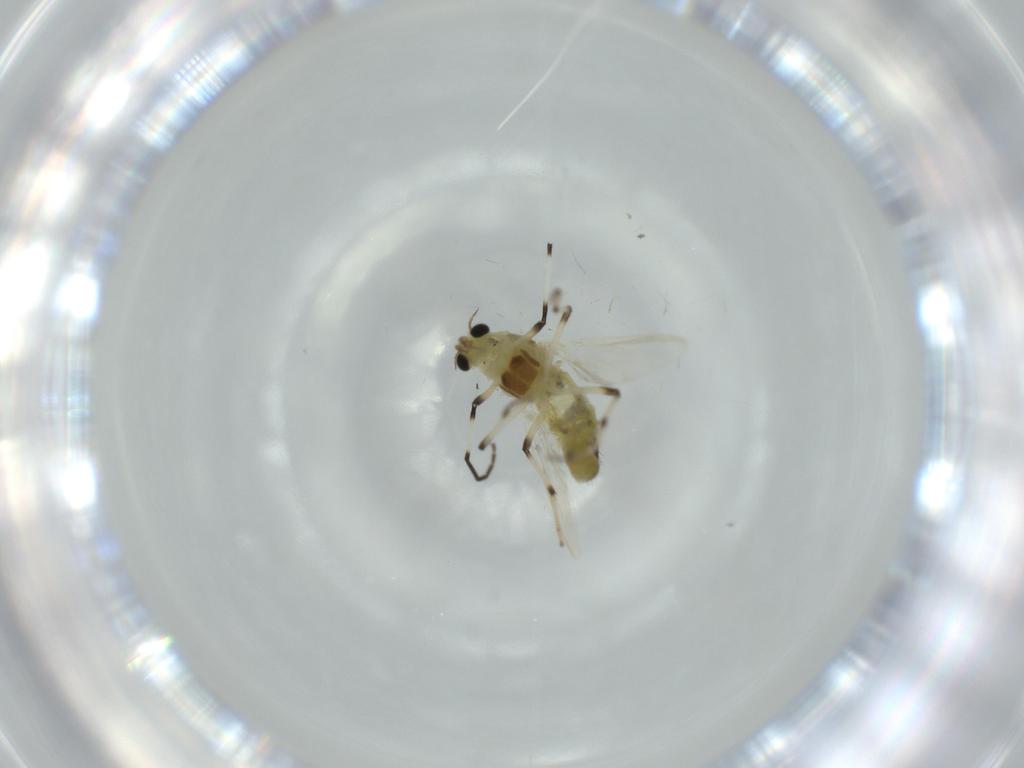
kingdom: Animalia
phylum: Arthropoda
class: Insecta
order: Diptera
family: Chironomidae
